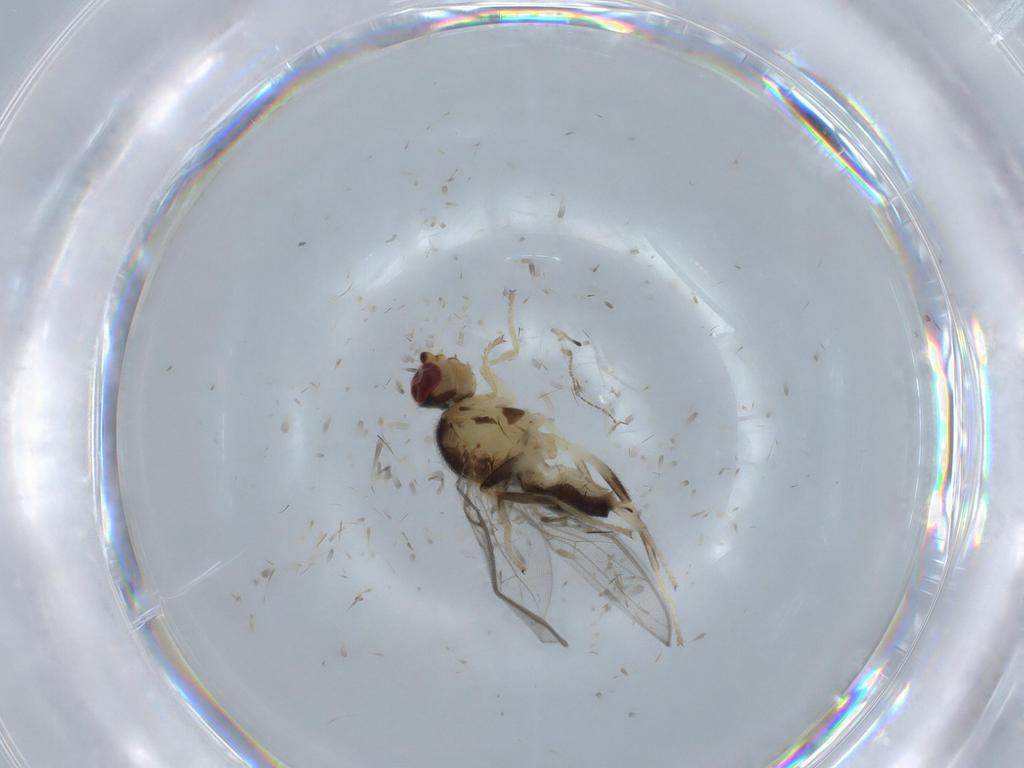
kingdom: Animalia
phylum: Arthropoda
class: Insecta
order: Diptera
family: Chloropidae
